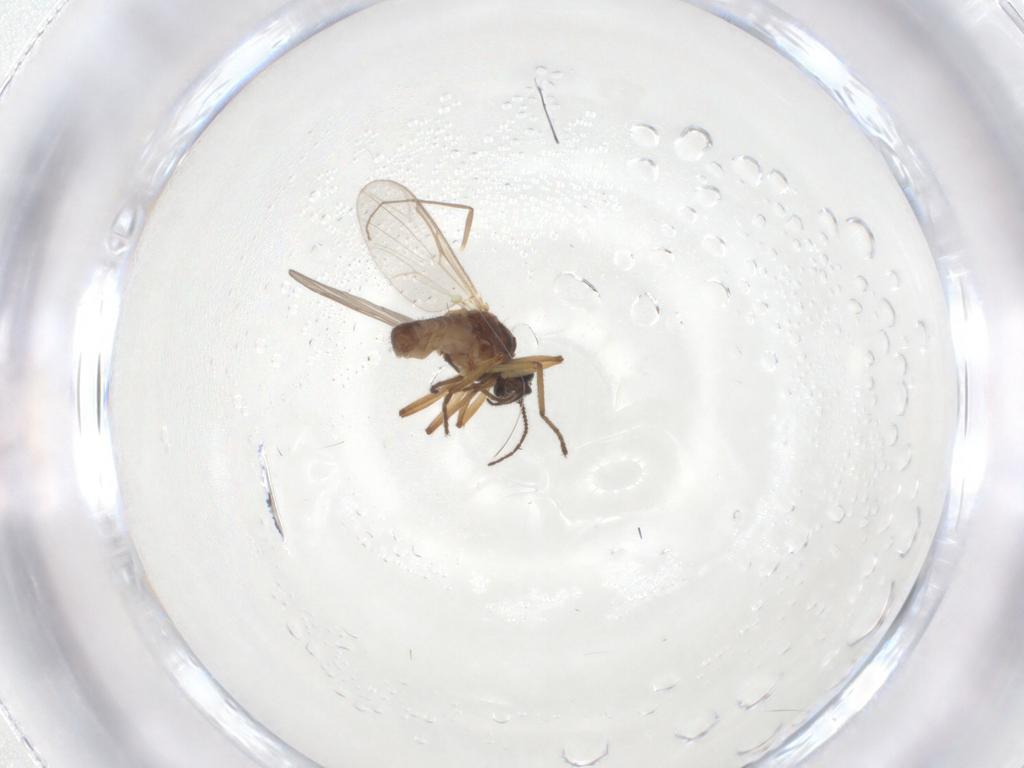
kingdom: Animalia
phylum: Arthropoda
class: Insecta
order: Diptera
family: Ceratopogonidae
